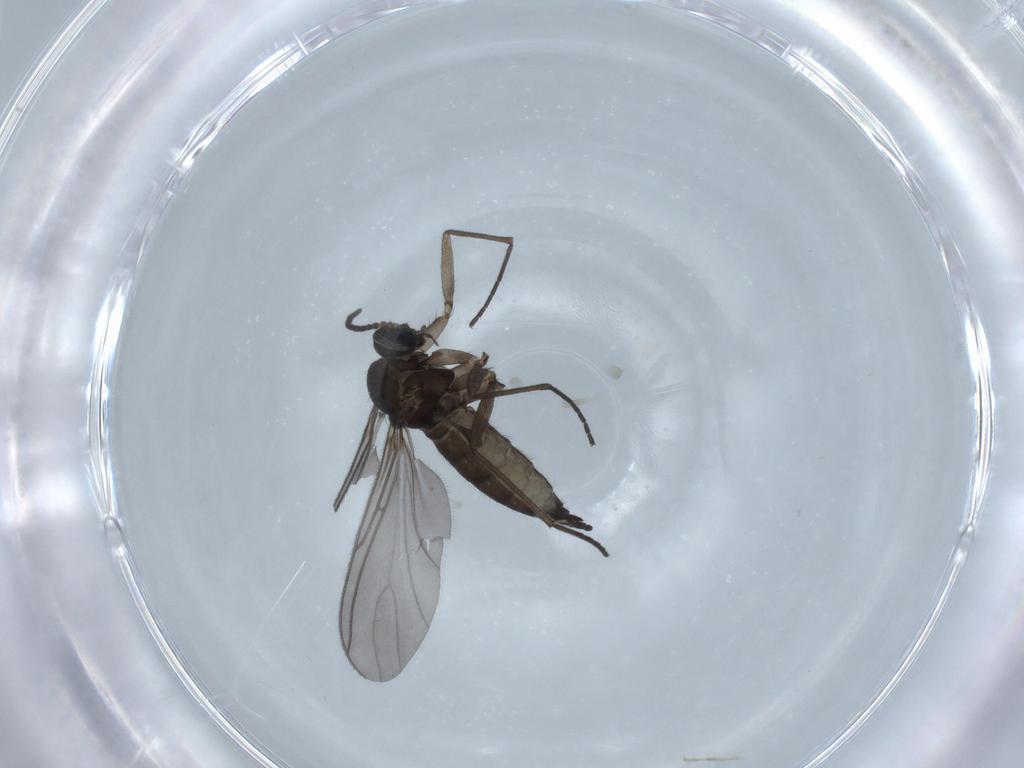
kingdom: Animalia
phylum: Arthropoda
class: Insecta
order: Diptera
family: Sciaridae
